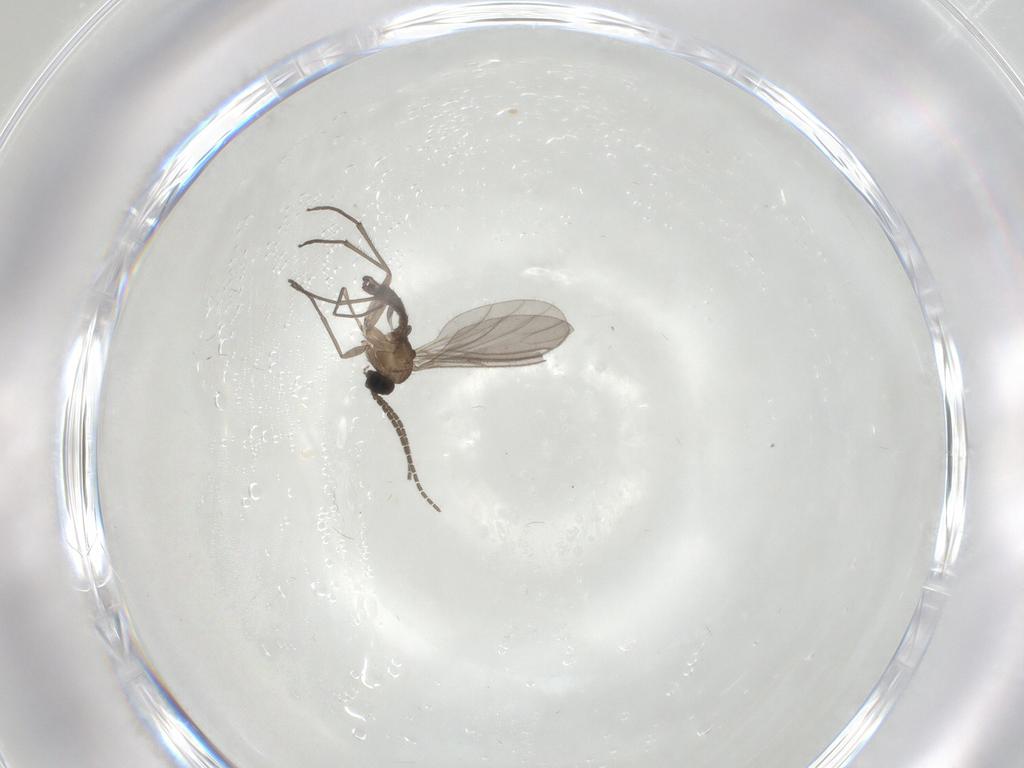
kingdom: Animalia
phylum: Arthropoda
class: Insecta
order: Diptera
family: Sciaridae
